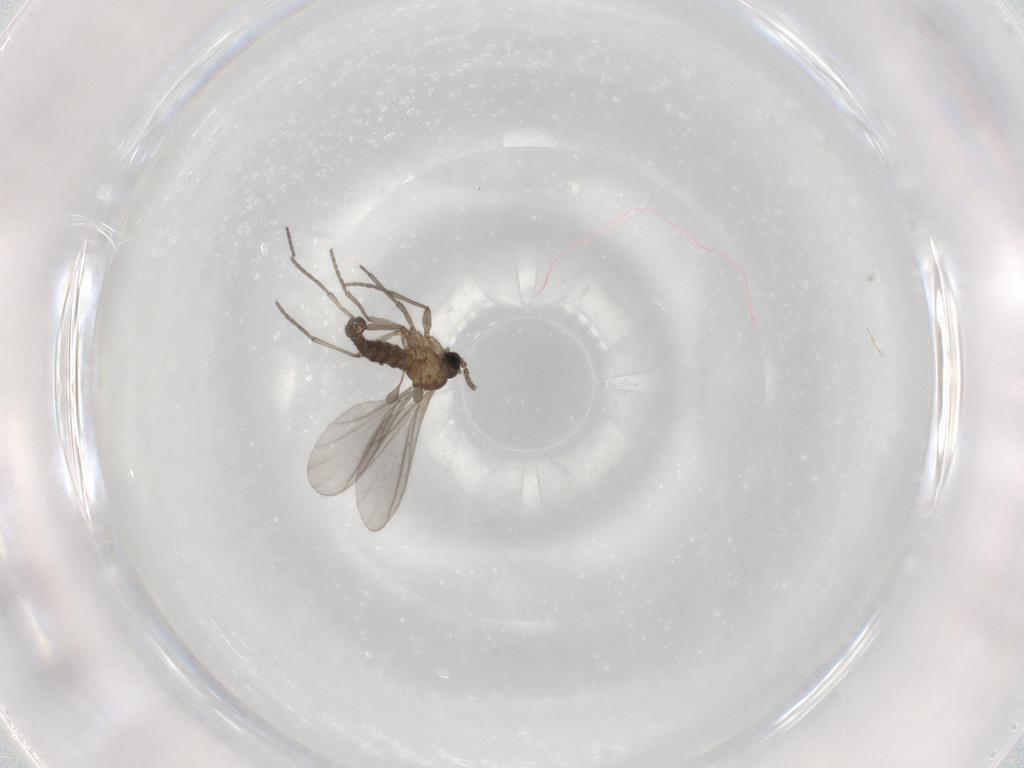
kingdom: Animalia
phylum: Arthropoda
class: Insecta
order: Diptera
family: Sciaridae
